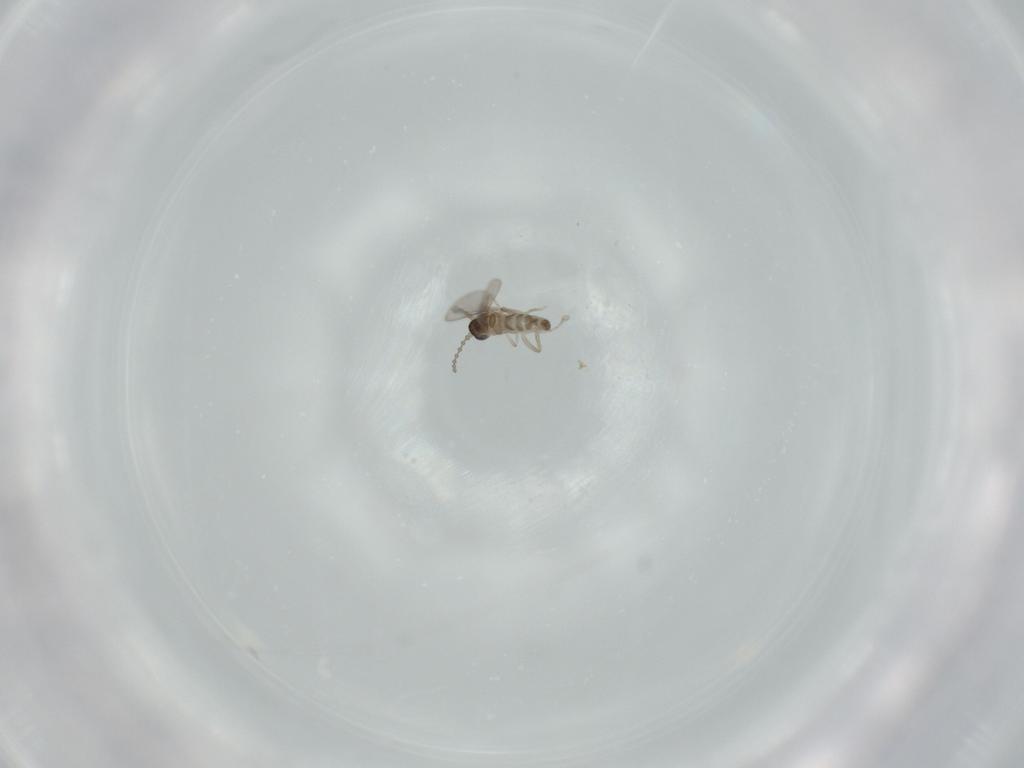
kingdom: Animalia
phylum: Arthropoda
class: Insecta
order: Diptera
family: Cecidomyiidae
